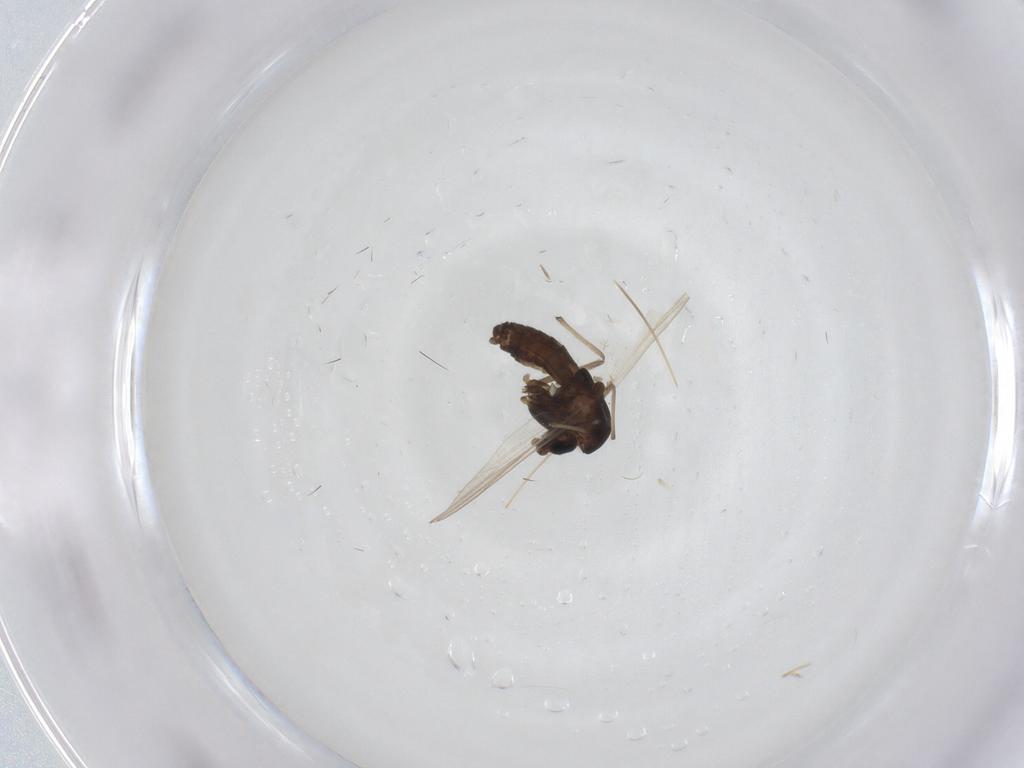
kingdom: Animalia
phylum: Arthropoda
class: Insecta
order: Diptera
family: Chironomidae
